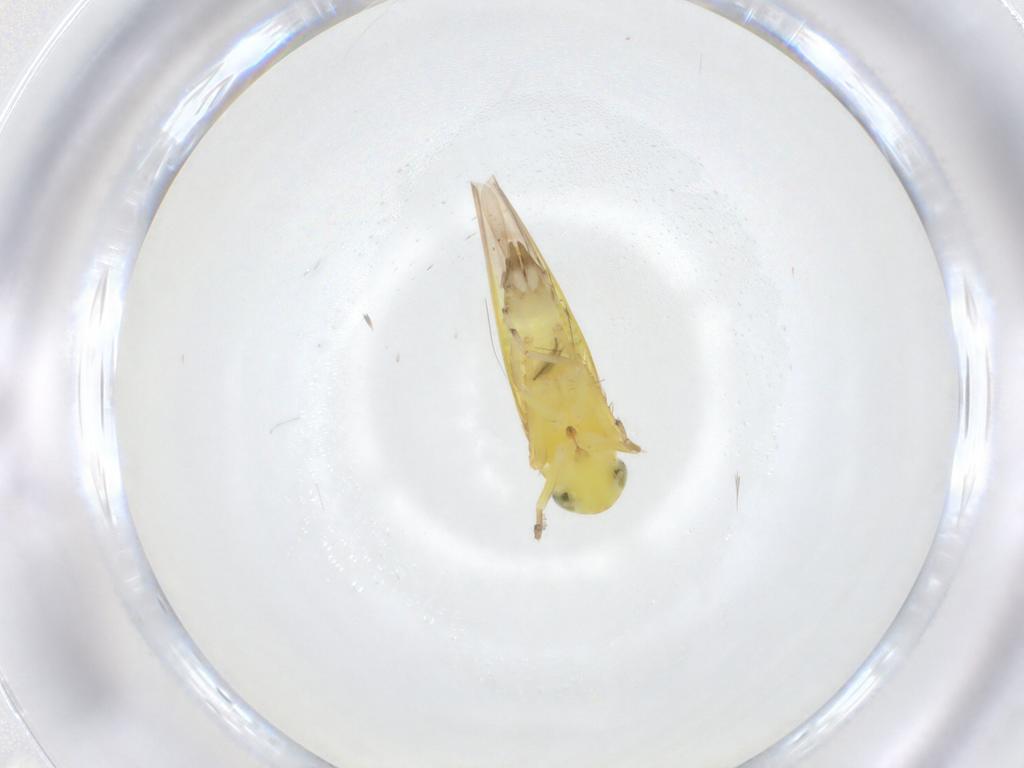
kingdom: Animalia
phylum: Arthropoda
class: Insecta
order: Hemiptera
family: Cicadellidae
